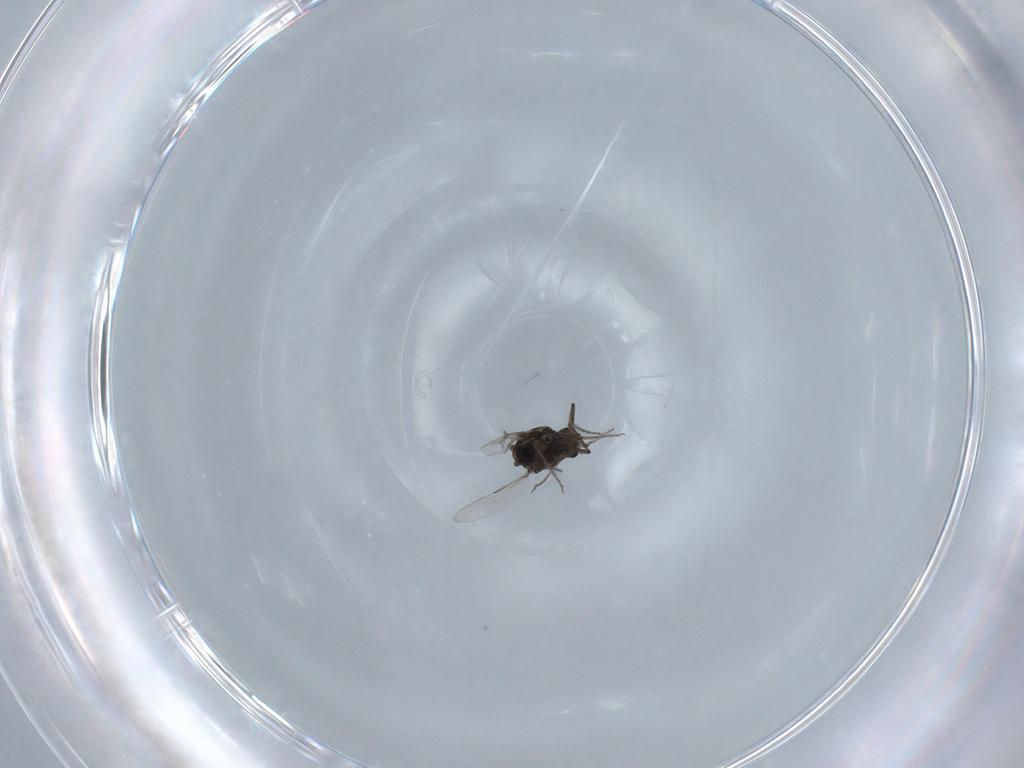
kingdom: Animalia
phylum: Arthropoda
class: Insecta
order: Diptera
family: Ceratopogonidae
